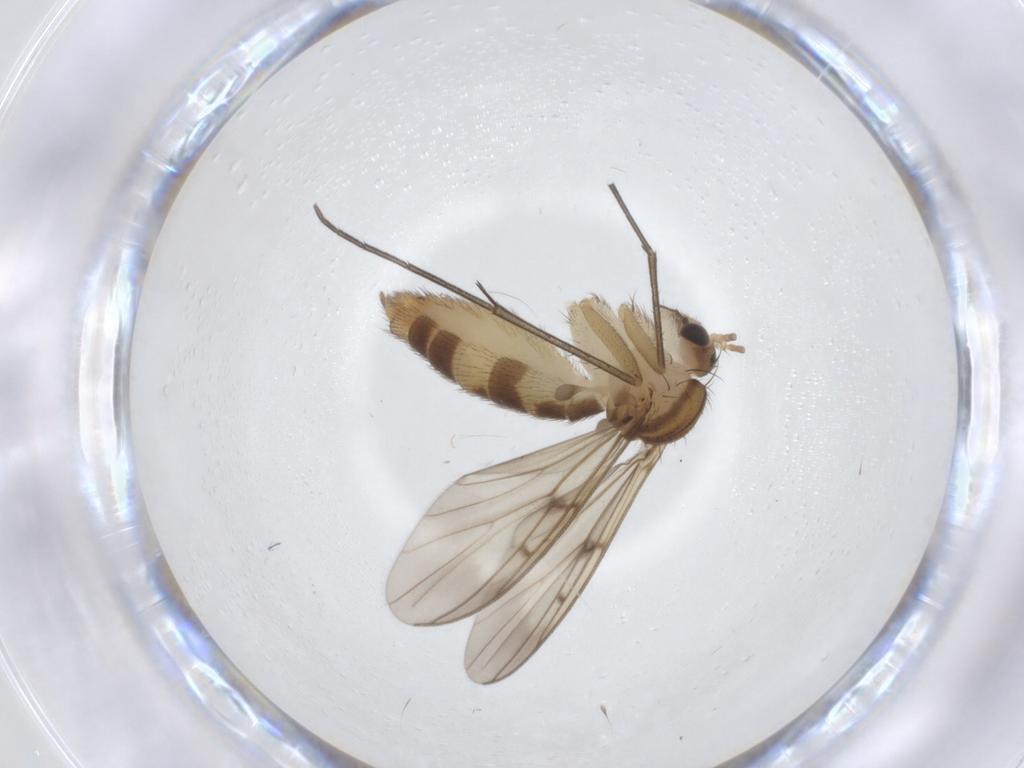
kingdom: Animalia
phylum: Arthropoda
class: Insecta
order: Diptera
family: Mycetophilidae
